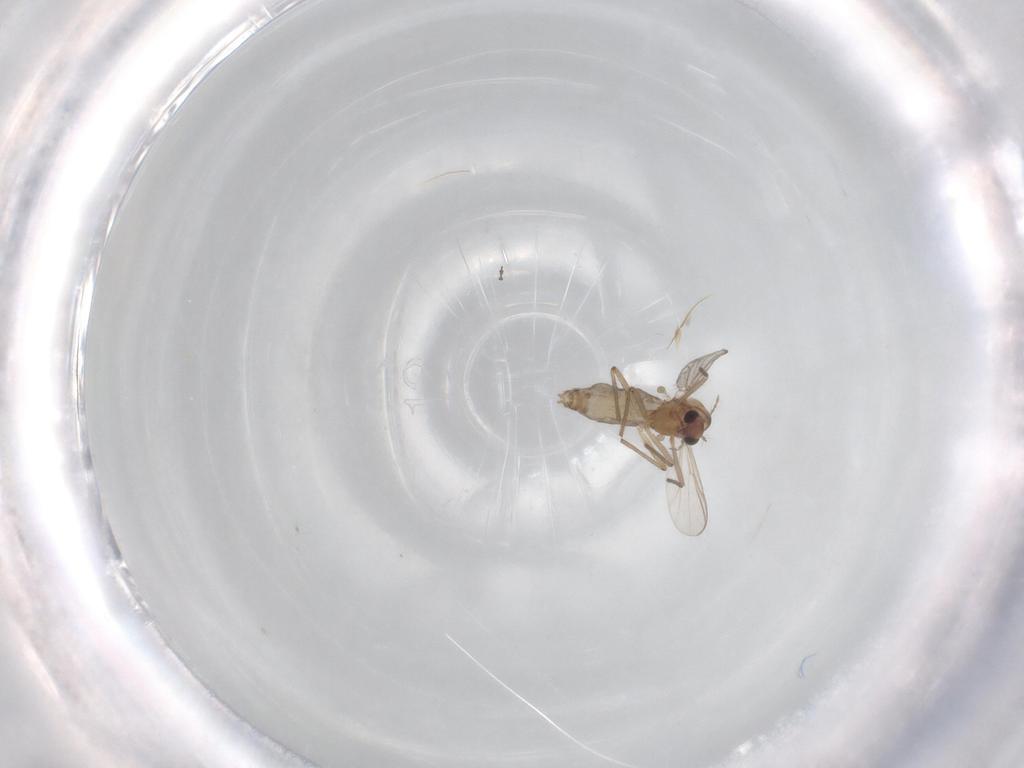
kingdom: Animalia
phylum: Arthropoda
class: Insecta
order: Diptera
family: Chironomidae
